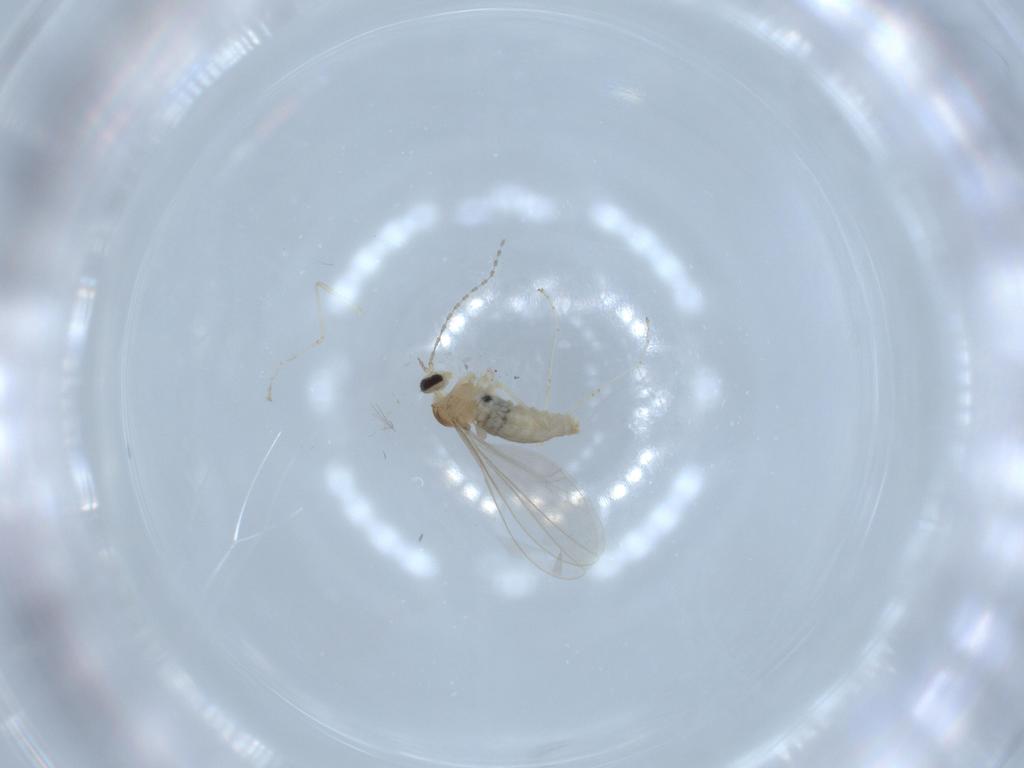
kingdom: Animalia
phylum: Arthropoda
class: Insecta
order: Diptera
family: Cecidomyiidae
